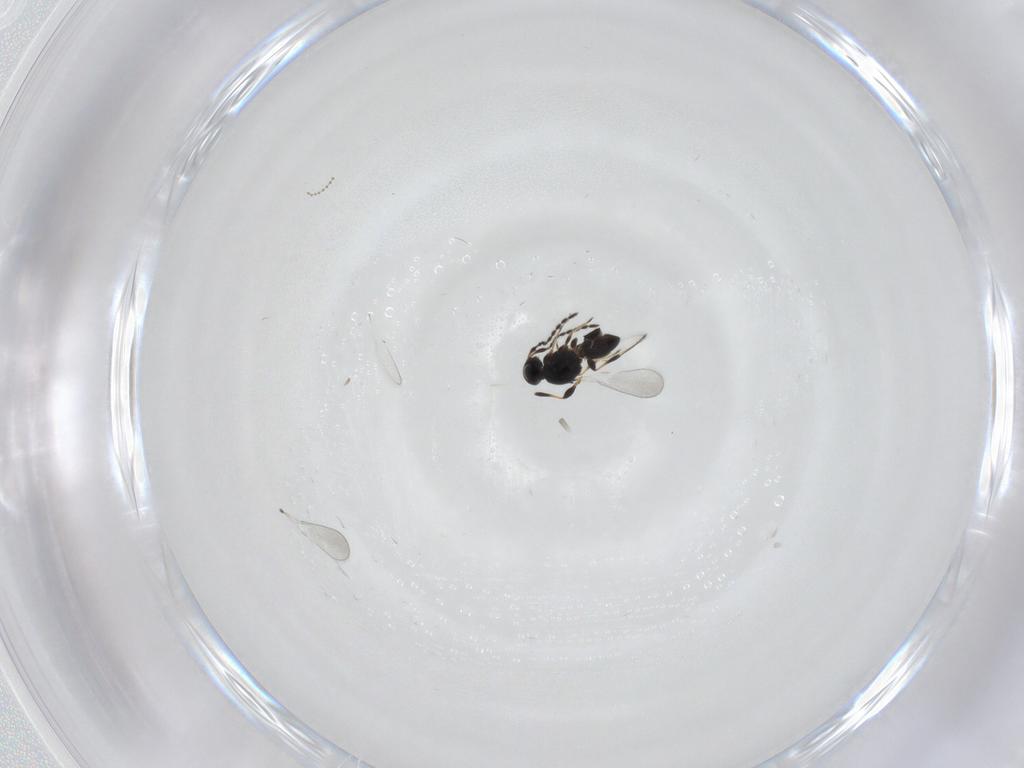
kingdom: Animalia
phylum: Arthropoda
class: Insecta
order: Hymenoptera
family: Platygastridae
